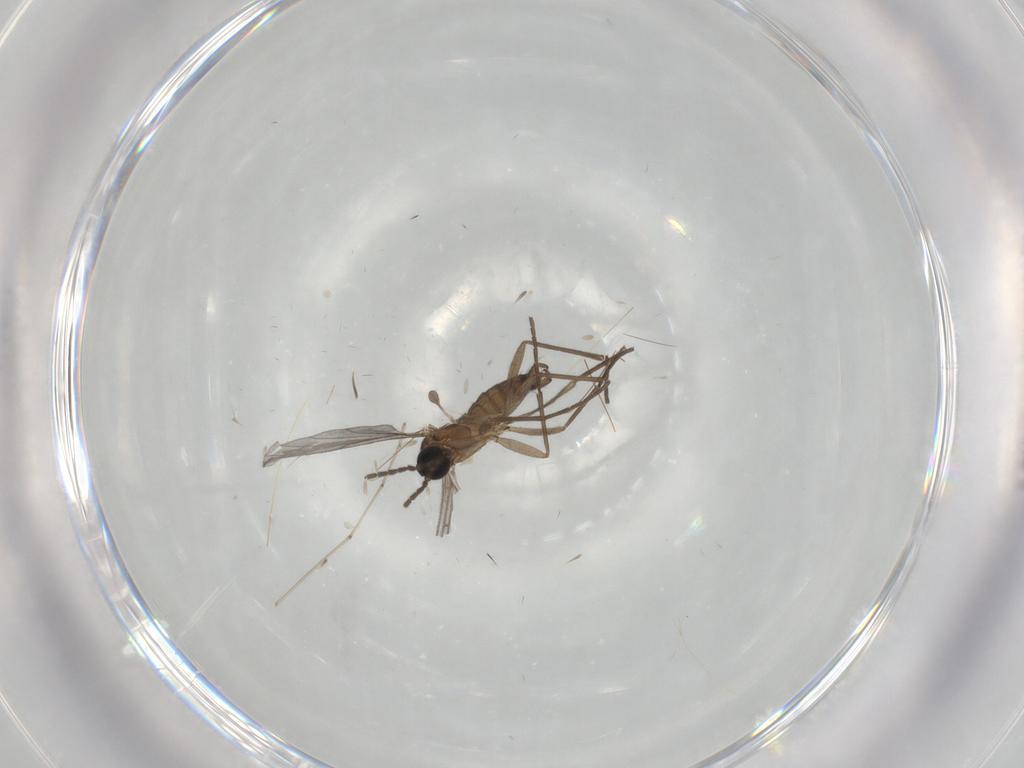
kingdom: Animalia
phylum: Arthropoda
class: Insecta
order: Diptera
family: Sciaridae
